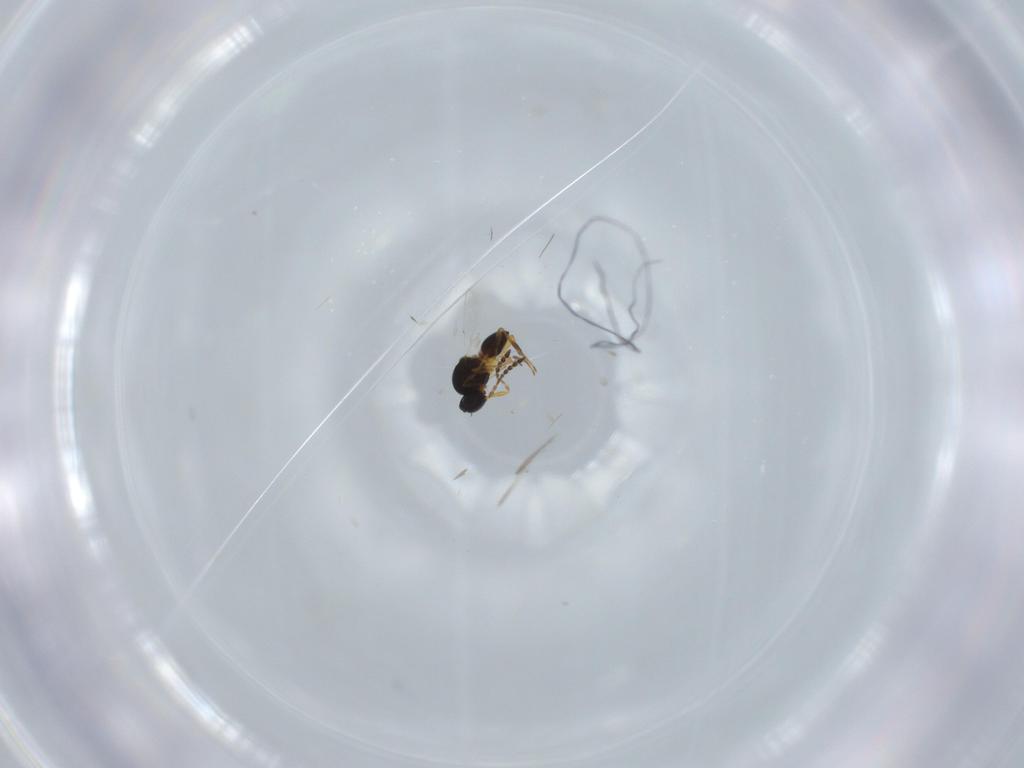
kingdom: Animalia
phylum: Arthropoda
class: Insecta
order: Hymenoptera
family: Platygastridae
